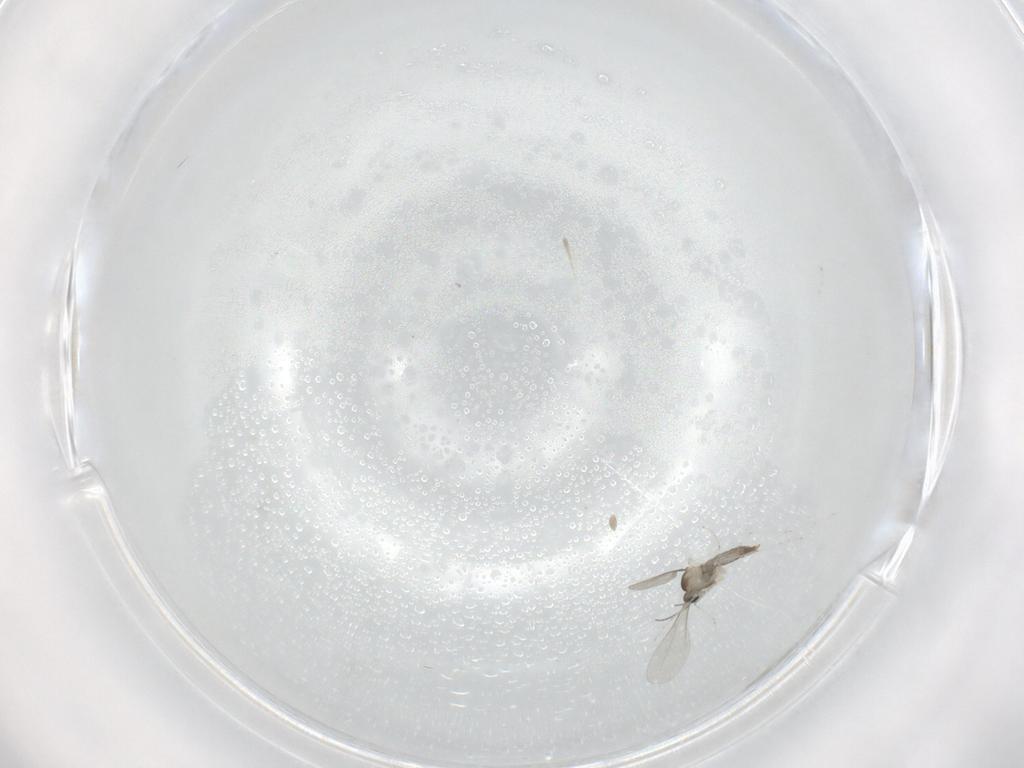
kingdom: Animalia
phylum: Arthropoda
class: Insecta
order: Diptera
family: Cecidomyiidae
